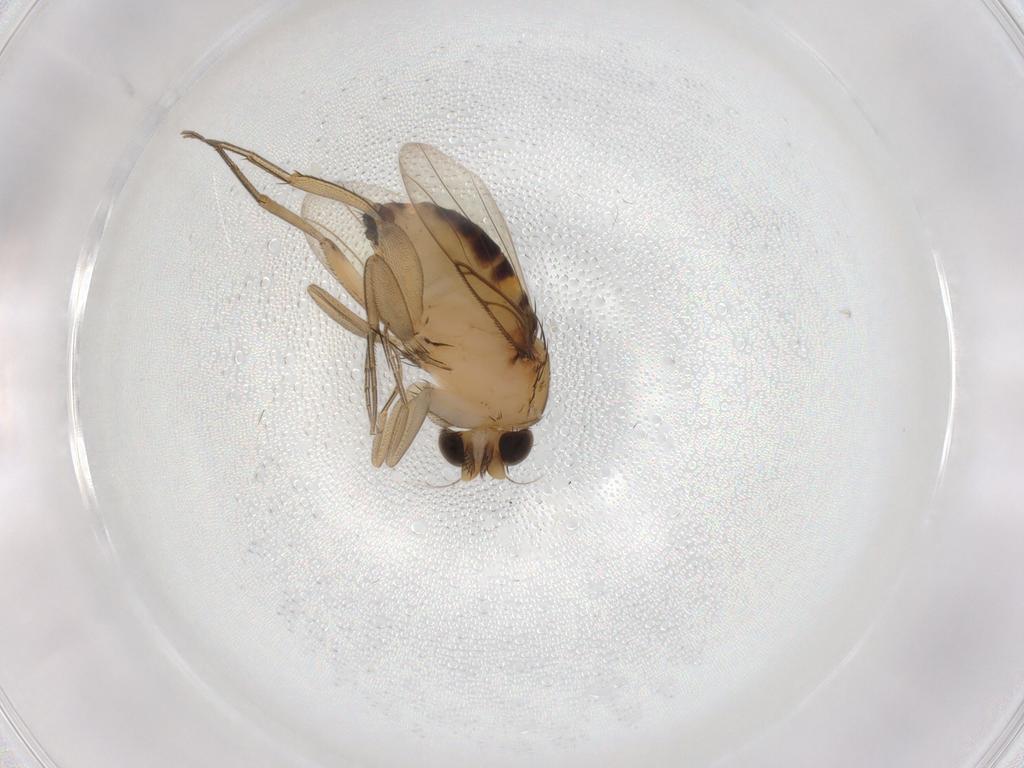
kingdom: Animalia
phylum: Arthropoda
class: Insecta
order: Diptera
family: Phoridae
